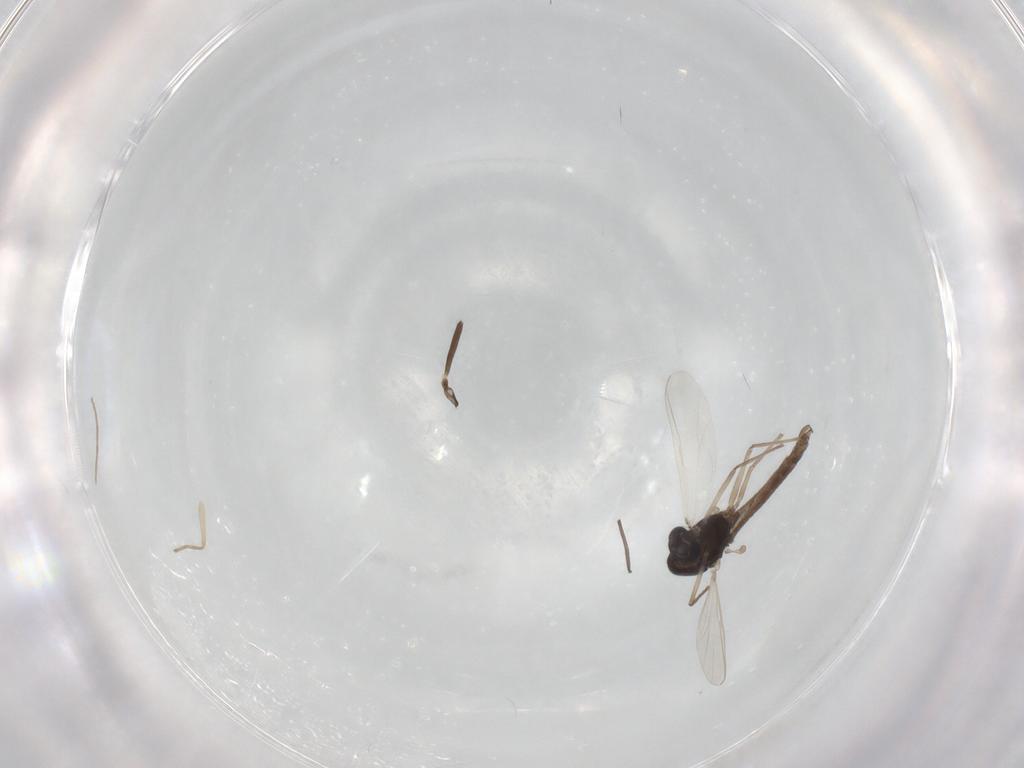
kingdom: Animalia
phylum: Arthropoda
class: Insecta
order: Diptera
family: Chironomidae
